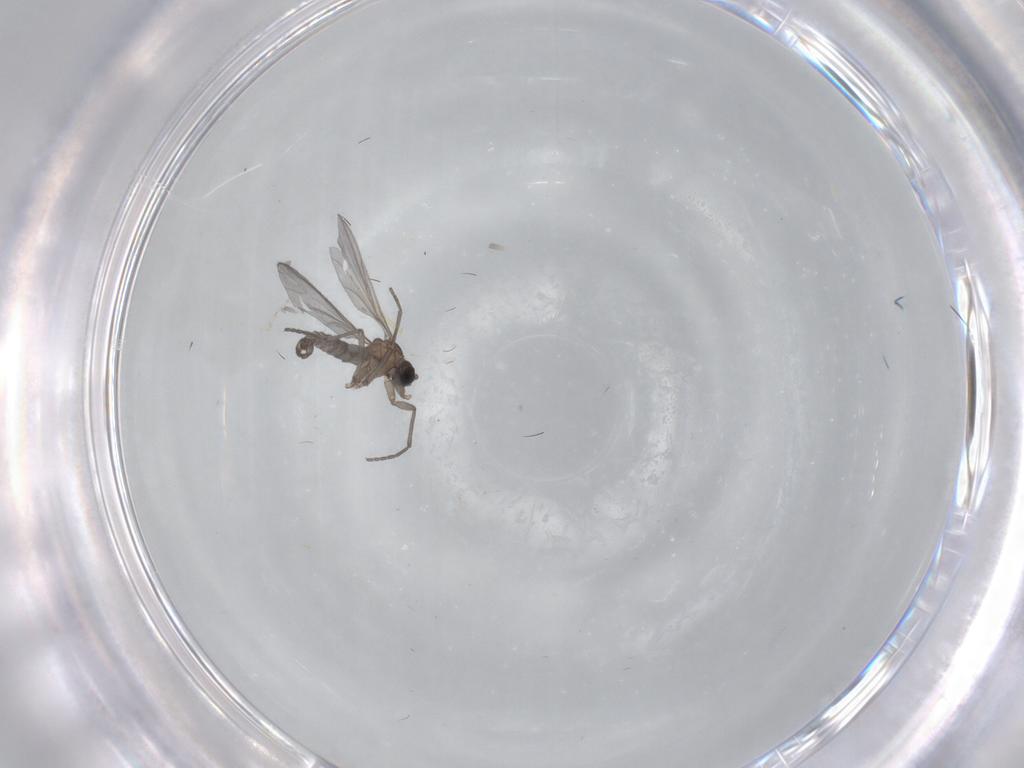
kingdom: Animalia
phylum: Arthropoda
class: Insecta
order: Diptera
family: Sciaridae
